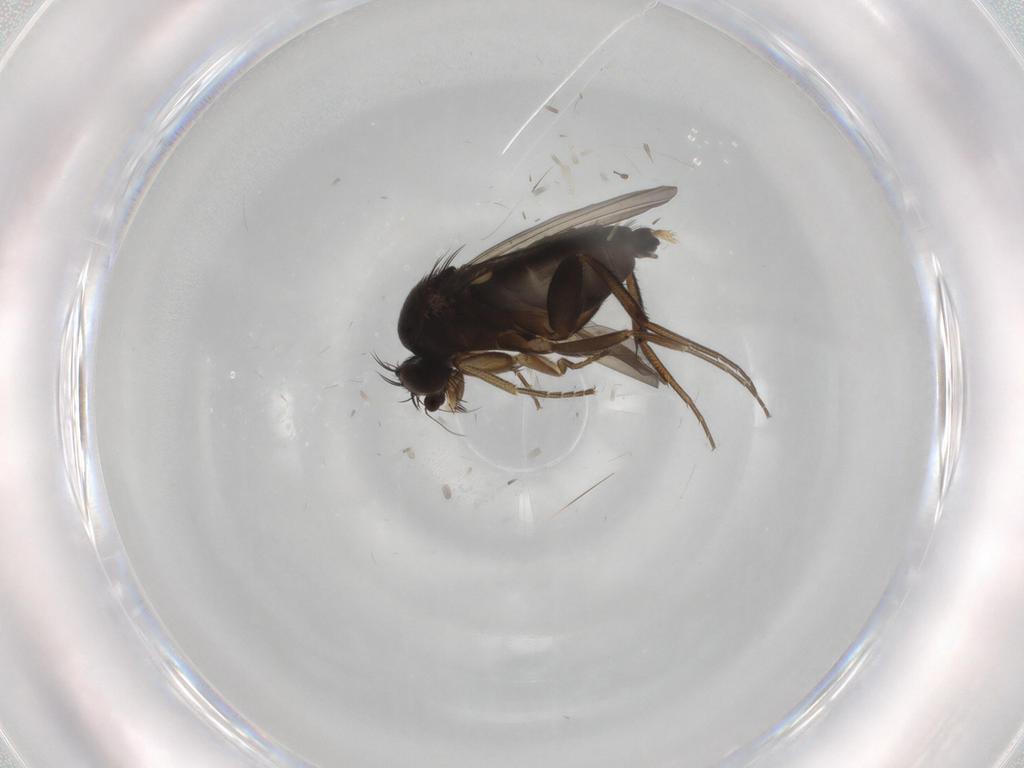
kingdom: Animalia
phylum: Arthropoda
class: Insecta
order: Diptera
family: Phoridae
